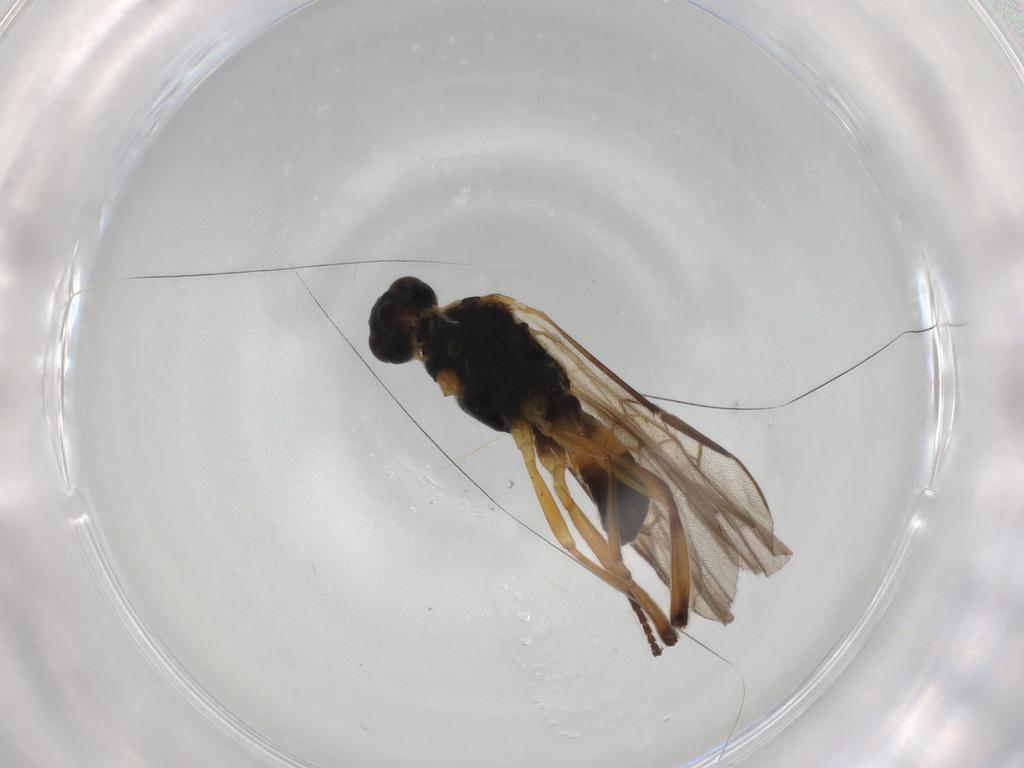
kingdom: Animalia
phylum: Arthropoda
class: Insecta
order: Hymenoptera
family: Braconidae
